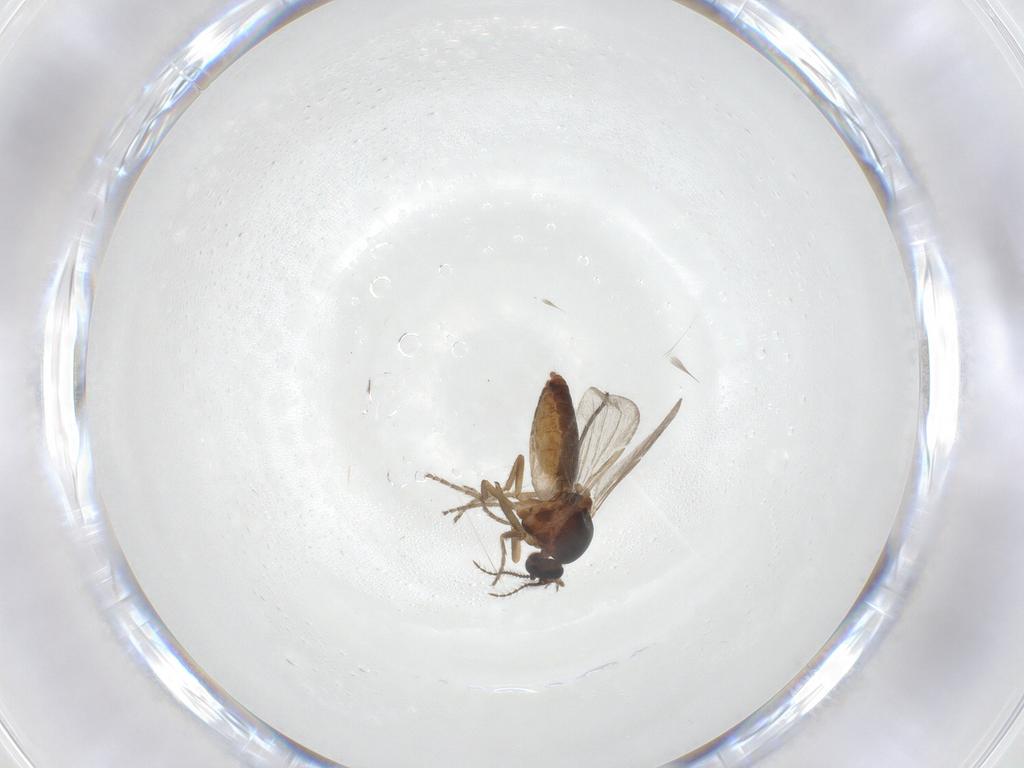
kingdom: Animalia
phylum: Arthropoda
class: Insecta
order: Diptera
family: Ceratopogonidae
